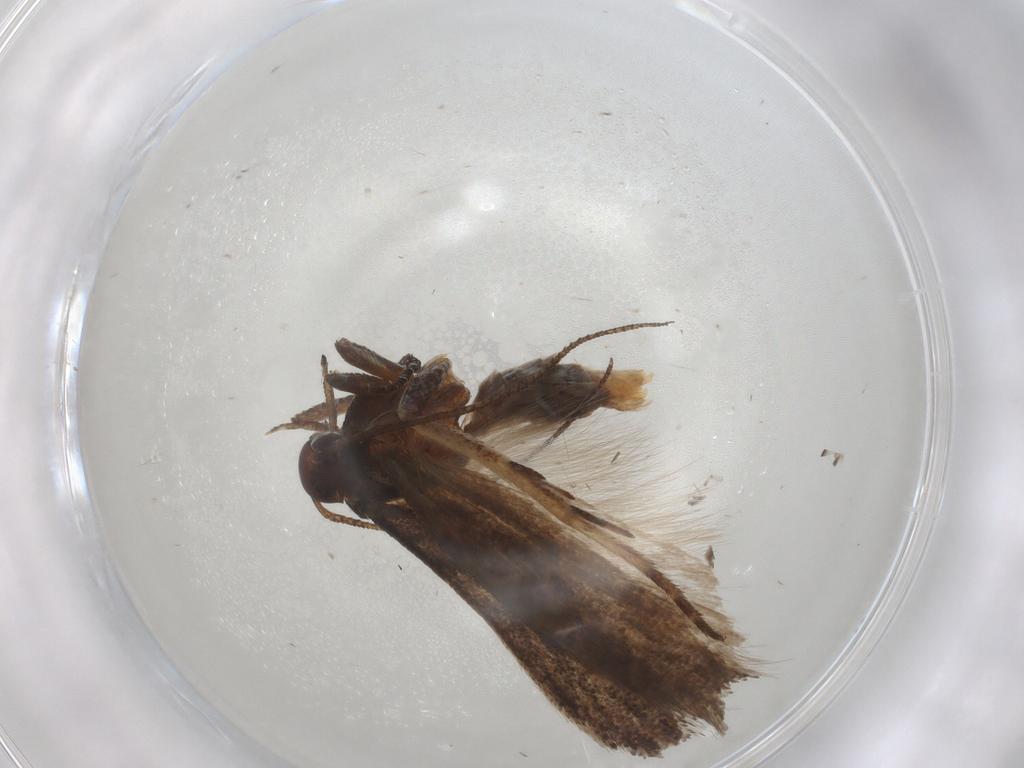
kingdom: Animalia
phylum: Arthropoda
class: Insecta
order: Lepidoptera
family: Gelechiidae
